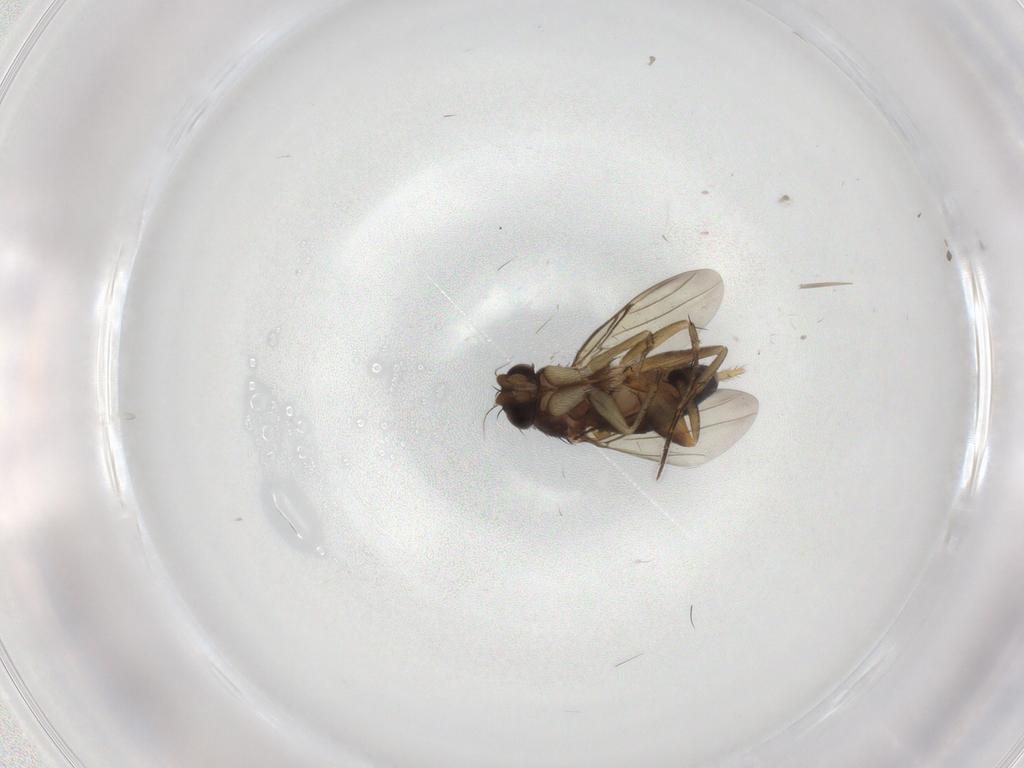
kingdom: Animalia
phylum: Arthropoda
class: Insecta
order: Diptera
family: Phoridae
